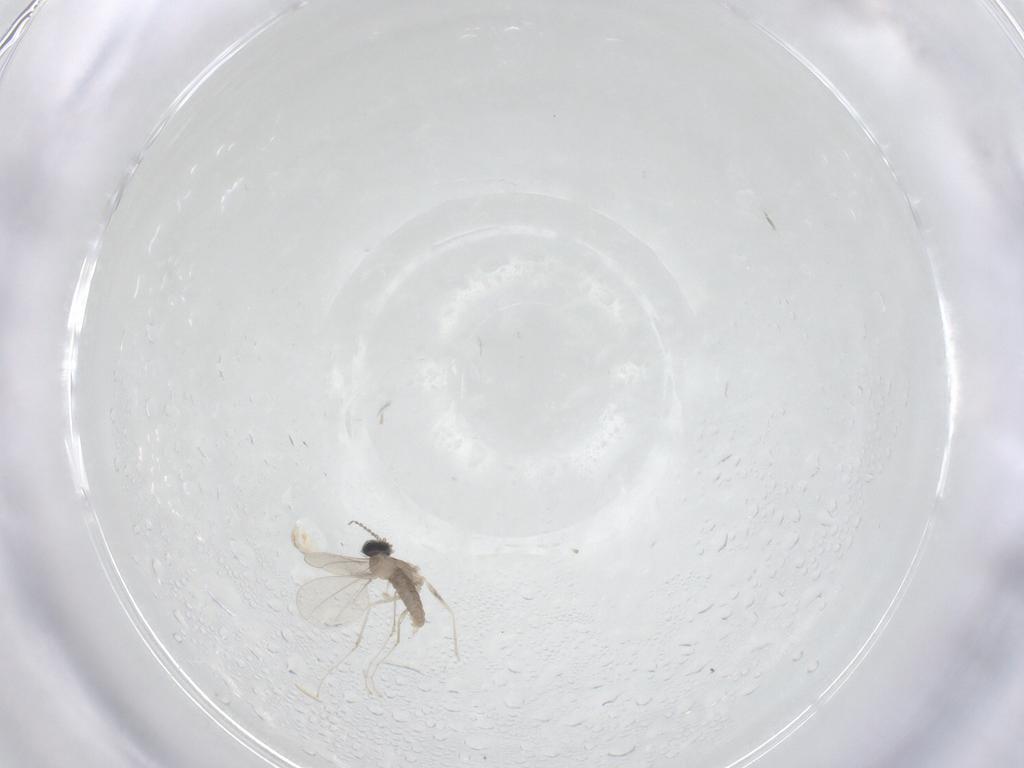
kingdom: Animalia
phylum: Arthropoda
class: Insecta
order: Diptera
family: Cecidomyiidae
